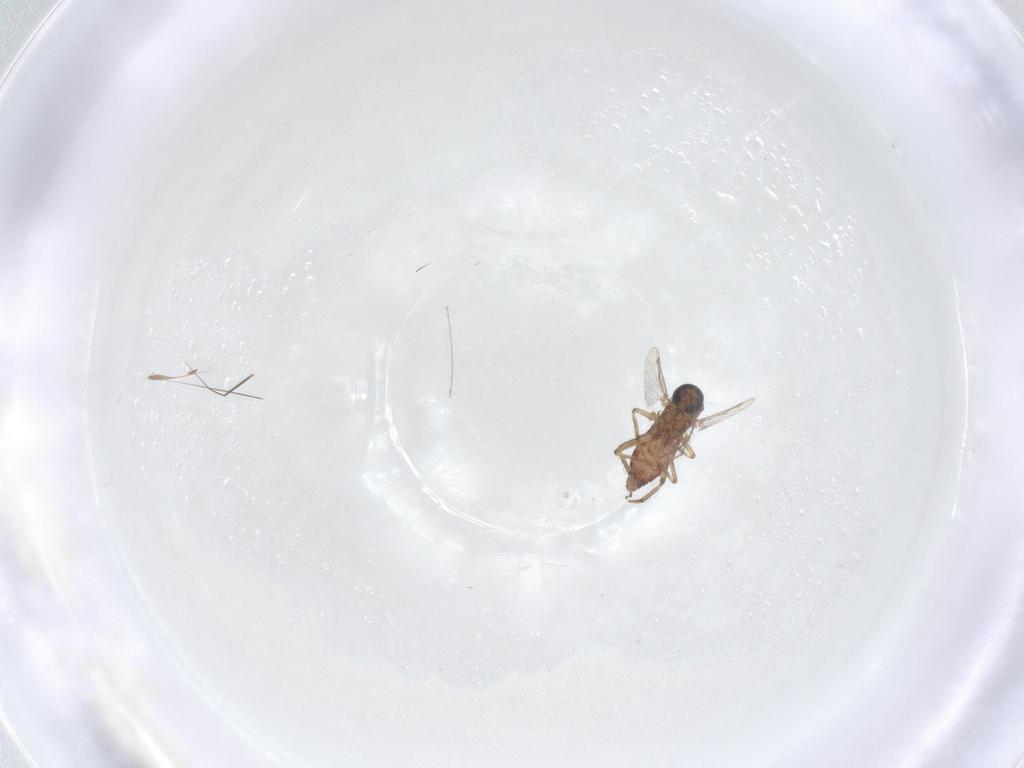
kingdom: Animalia
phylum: Arthropoda
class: Insecta
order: Diptera
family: Ceratopogonidae
